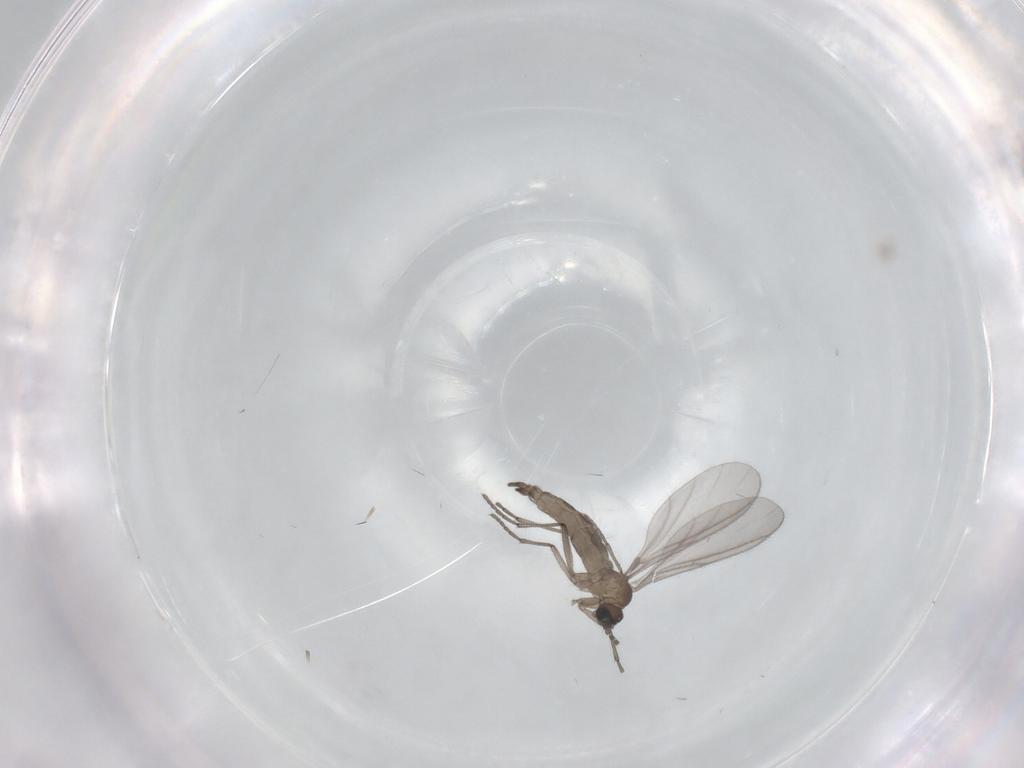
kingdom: Animalia
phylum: Arthropoda
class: Insecta
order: Diptera
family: Sciaridae
